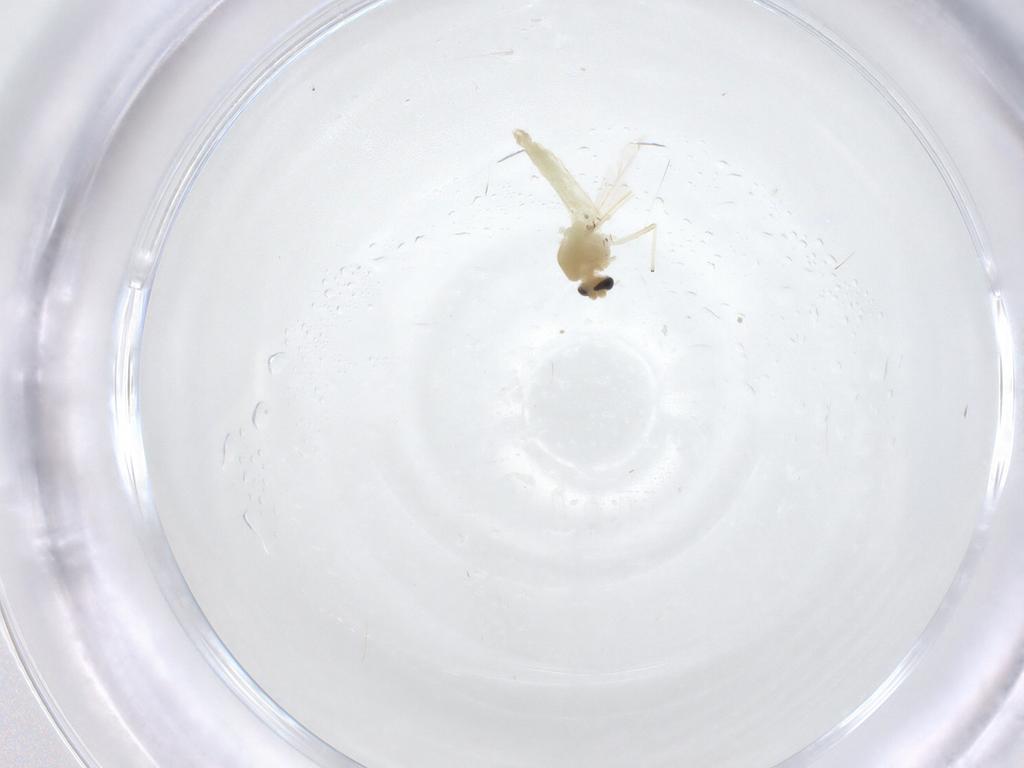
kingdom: Animalia
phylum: Arthropoda
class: Insecta
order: Diptera
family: Chironomidae
